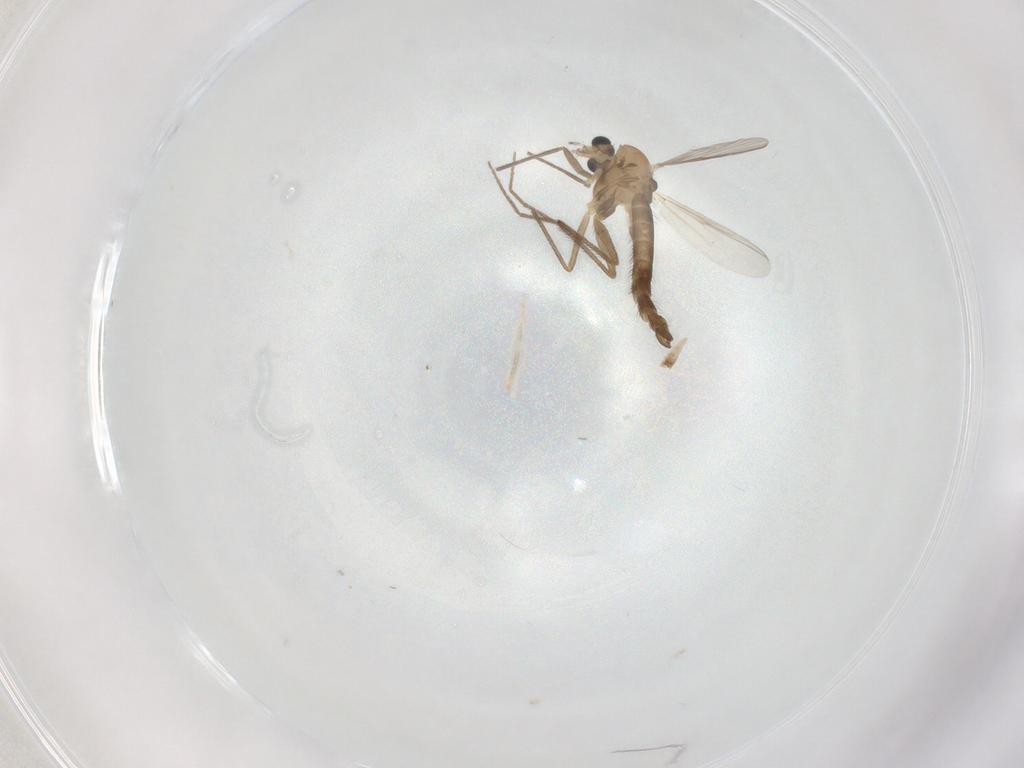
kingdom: Animalia
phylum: Arthropoda
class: Insecta
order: Diptera
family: Chironomidae
